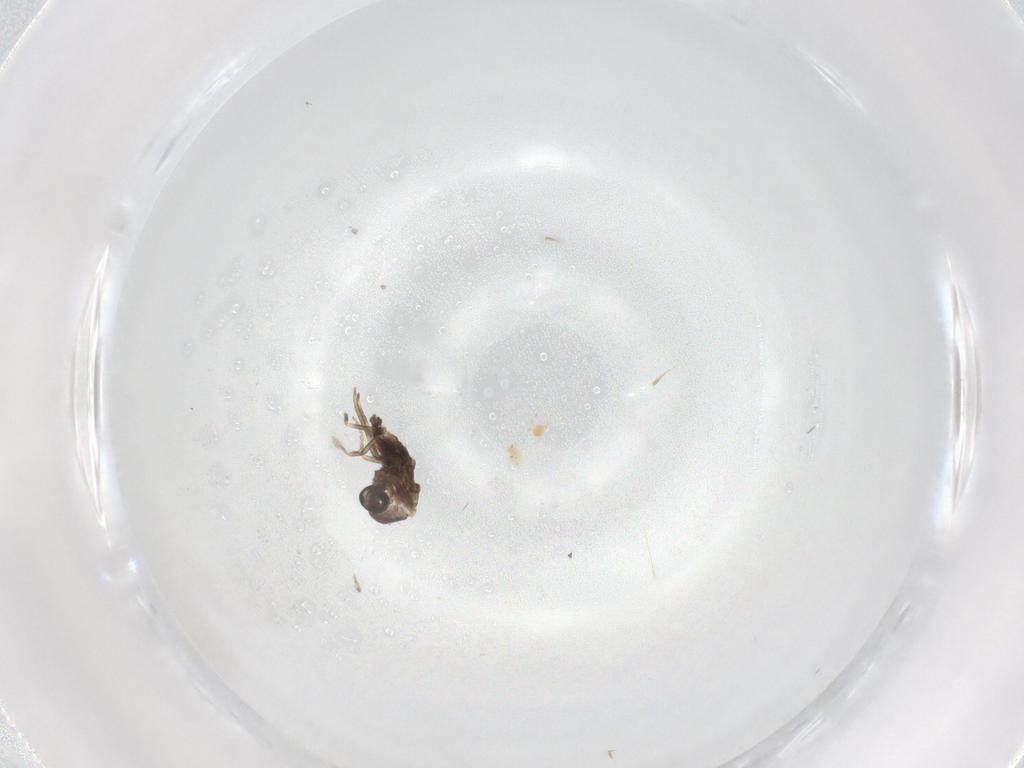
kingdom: Animalia
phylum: Arthropoda
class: Insecta
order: Diptera
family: Ceratopogonidae
